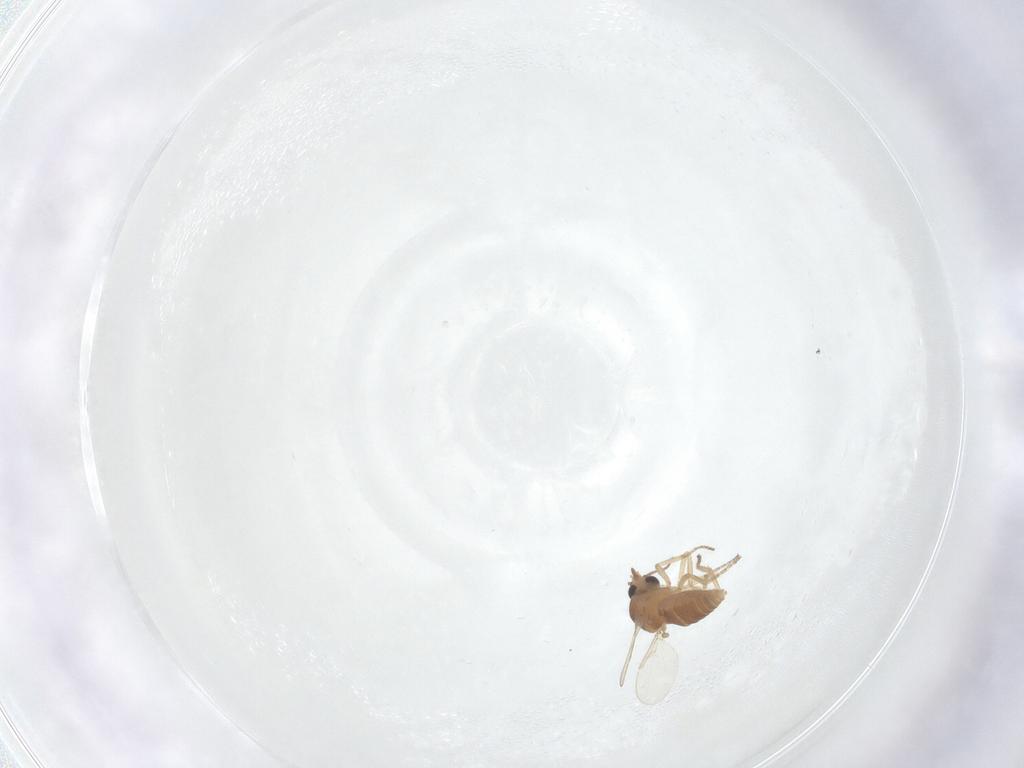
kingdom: Animalia
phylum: Arthropoda
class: Insecta
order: Diptera
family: Ceratopogonidae
